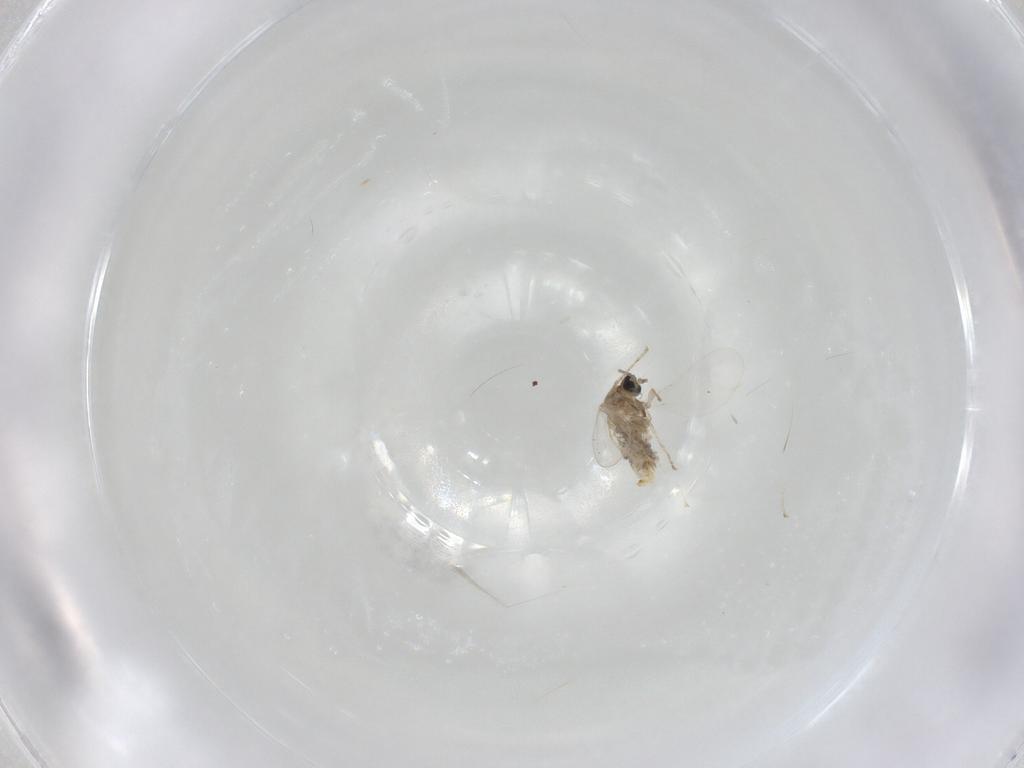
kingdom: Animalia
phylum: Arthropoda
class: Insecta
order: Diptera
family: Cecidomyiidae
